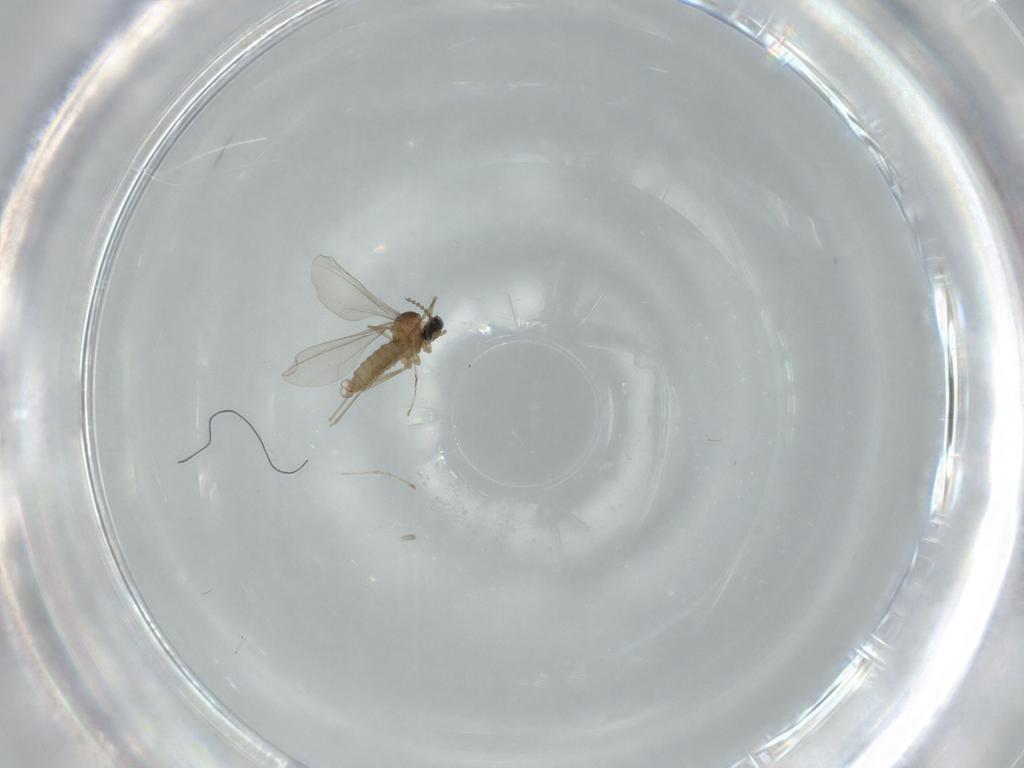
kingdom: Animalia
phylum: Arthropoda
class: Insecta
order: Diptera
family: Cecidomyiidae
